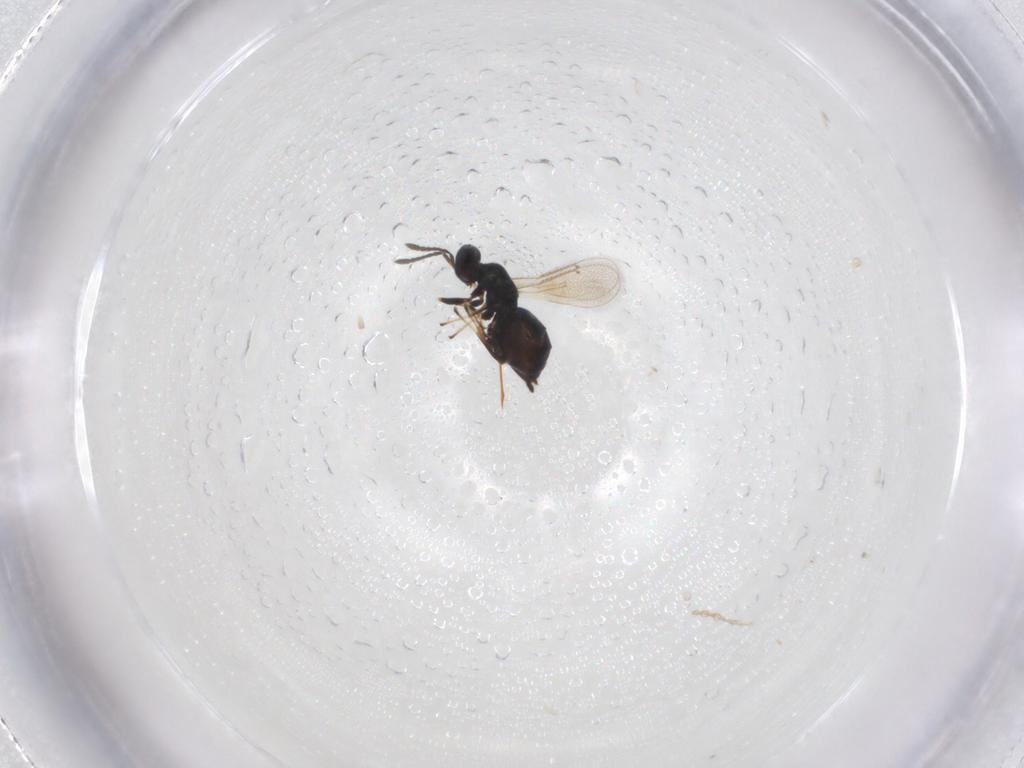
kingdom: Animalia
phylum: Arthropoda
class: Insecta
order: Hymenoptera
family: Eulophidae
